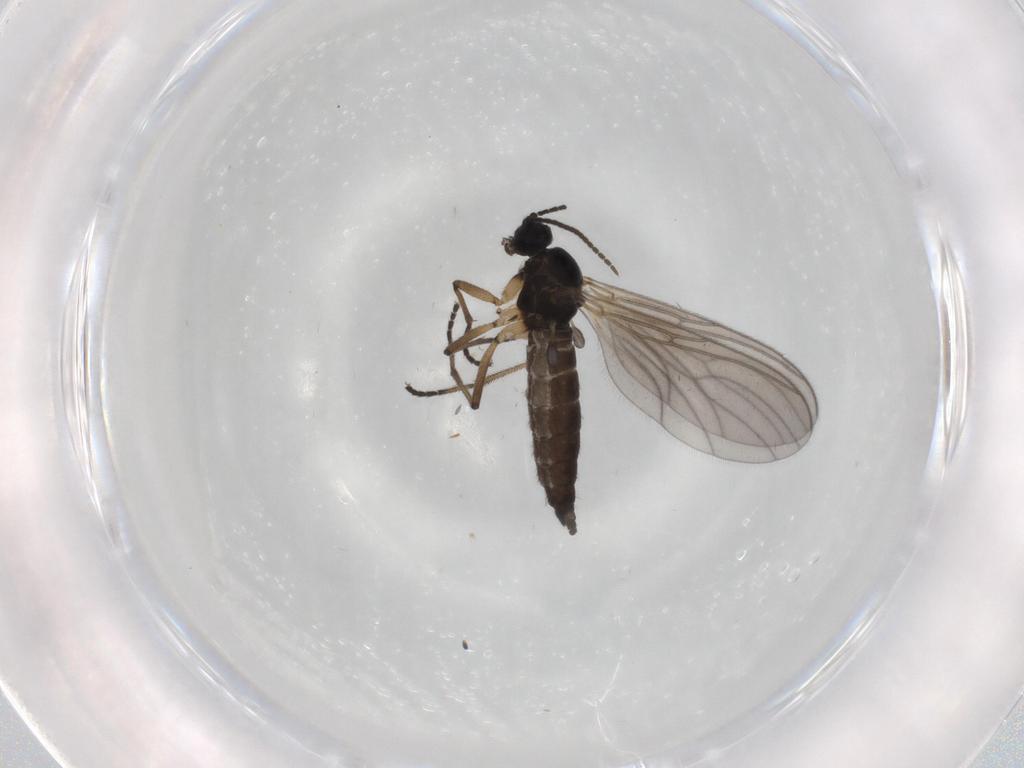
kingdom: Animalia
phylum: Arthropoda
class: Insecta
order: Diptera
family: Sciaridae
